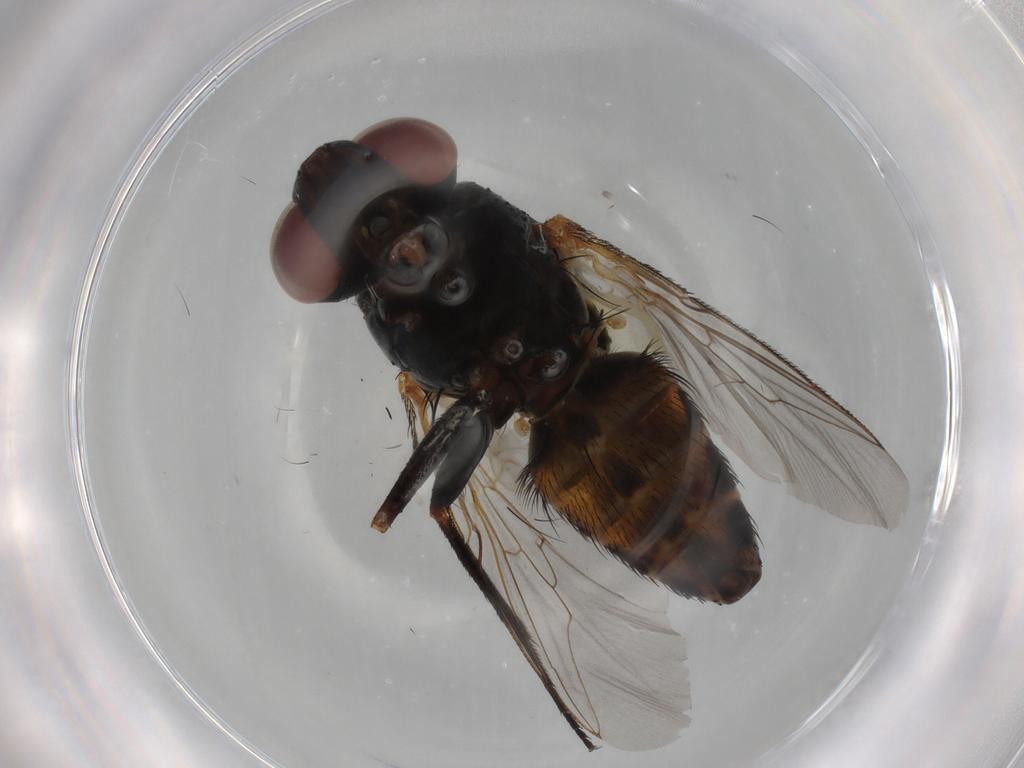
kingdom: Animalia
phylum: Arthropoda
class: Insecta
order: Diptera
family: Sarcophagidae
